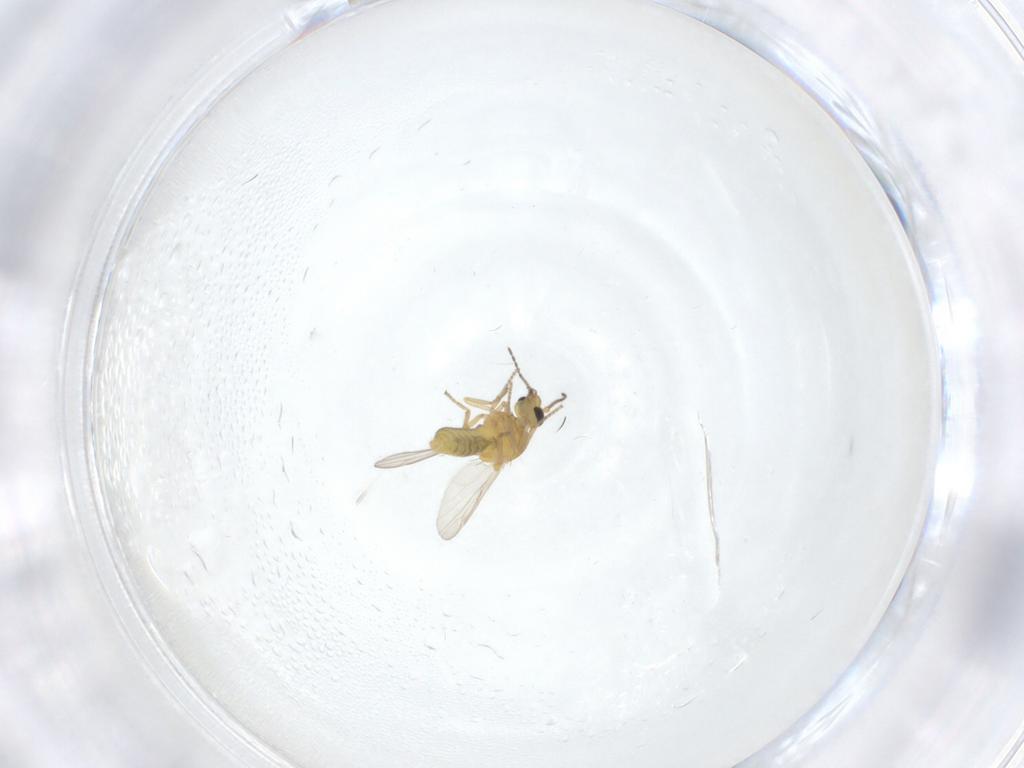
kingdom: Animalia
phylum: Arthropoda
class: Insecta
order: Diptera
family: Ceratopogonidae
